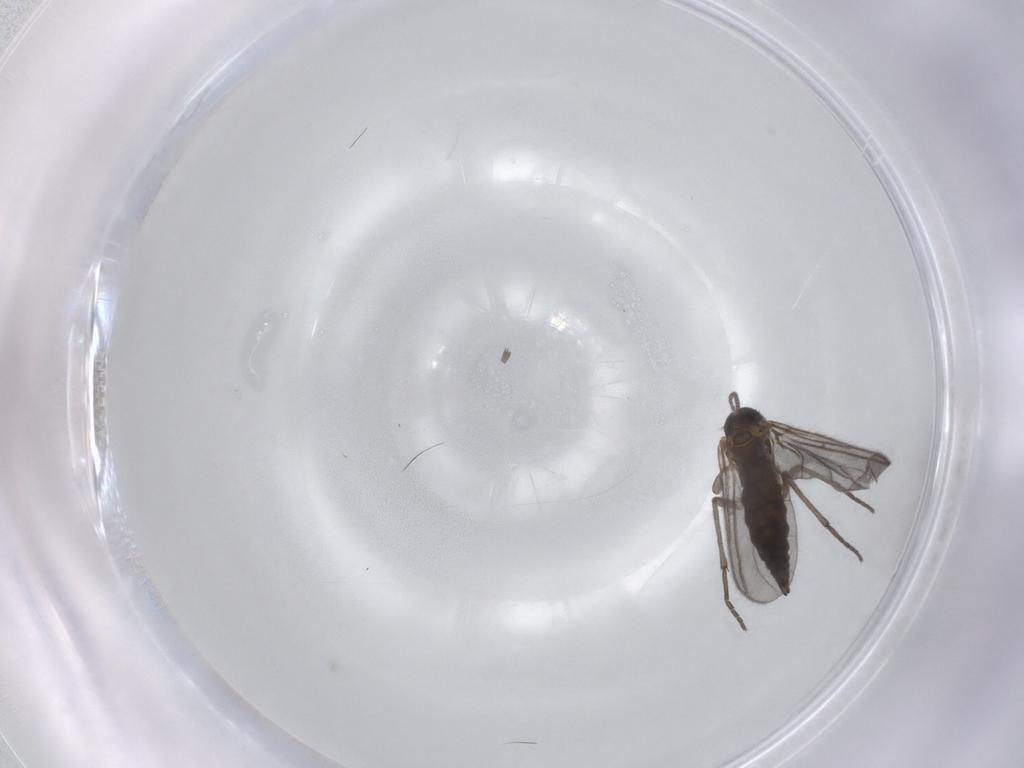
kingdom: Animalia
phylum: Arthropoda
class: Insecta
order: Diptera
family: Sciaridae
